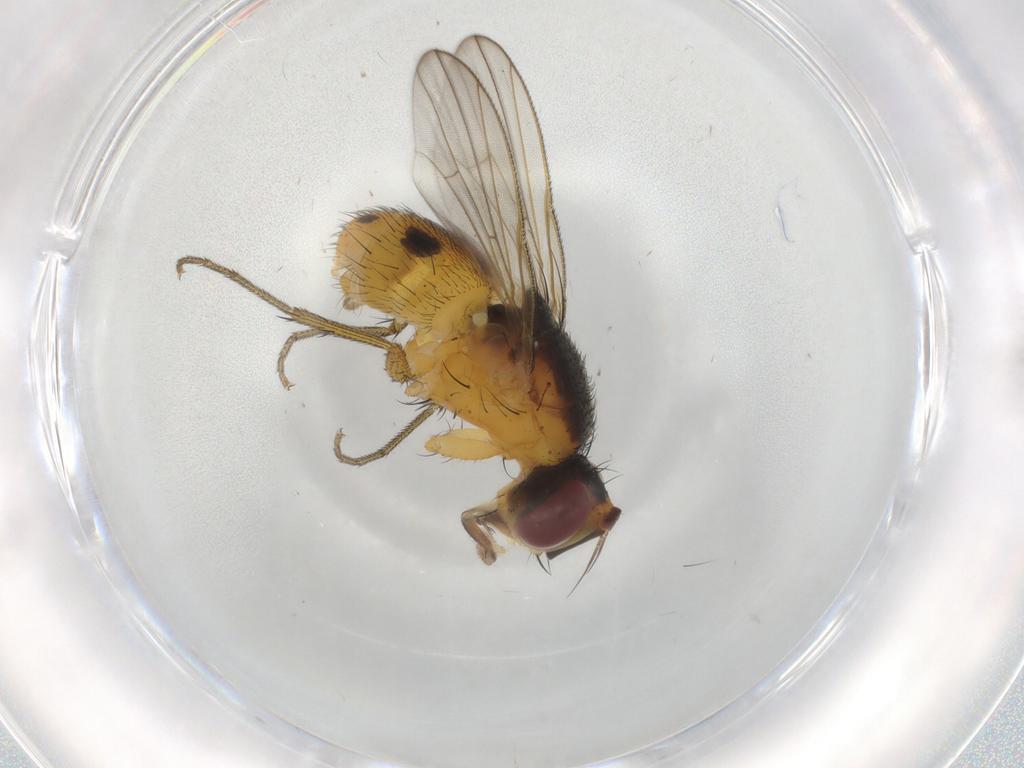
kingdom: Animalia
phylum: Arthropoda
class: Insecta
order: Diptera
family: Muscidae
